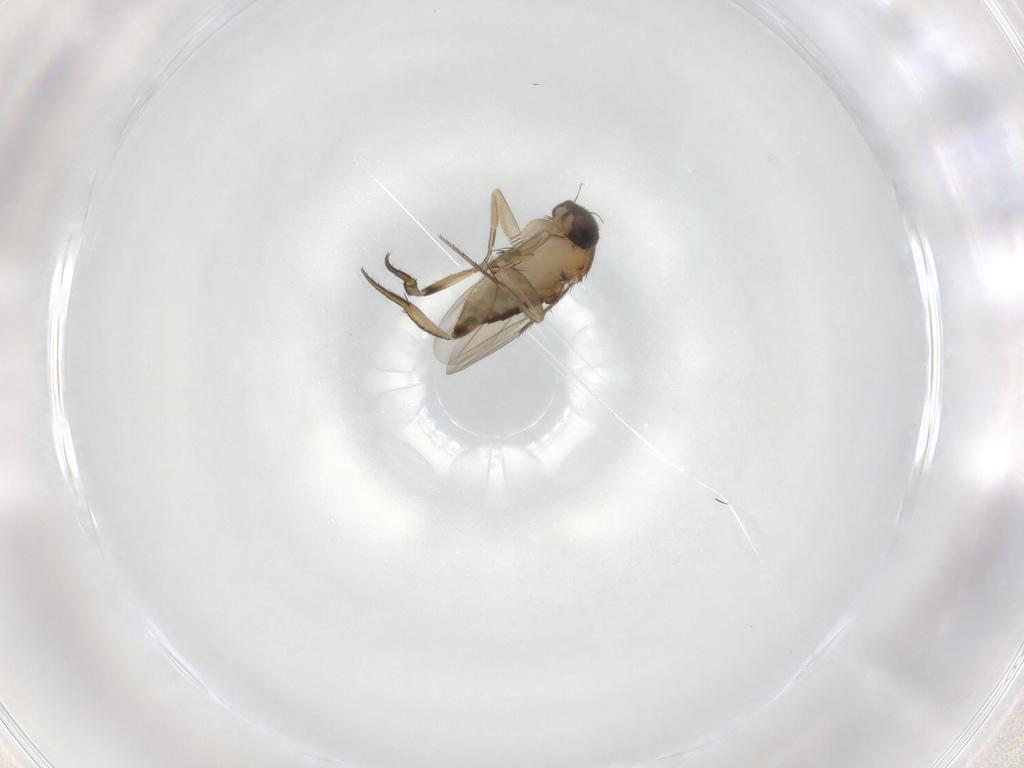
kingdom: Animalia
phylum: Arthropoda
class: Insecta
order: Diptera
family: Phoridae
